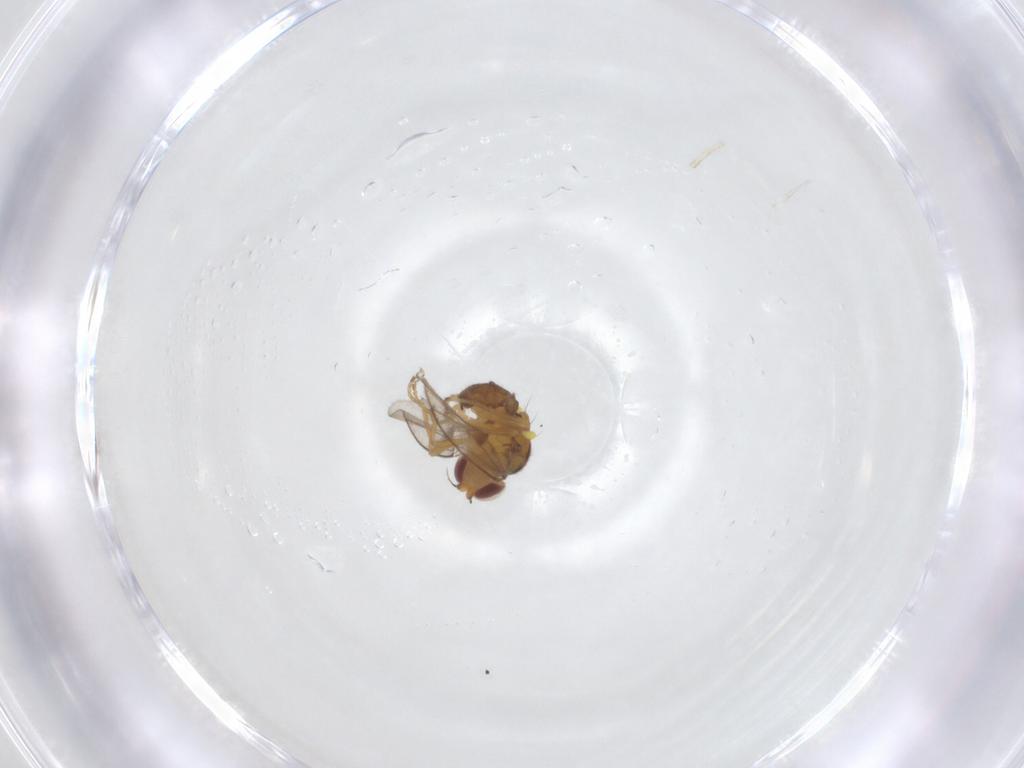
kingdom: Animalia
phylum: Arthropoda
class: Insecta
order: Diptera
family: Chloropidae
